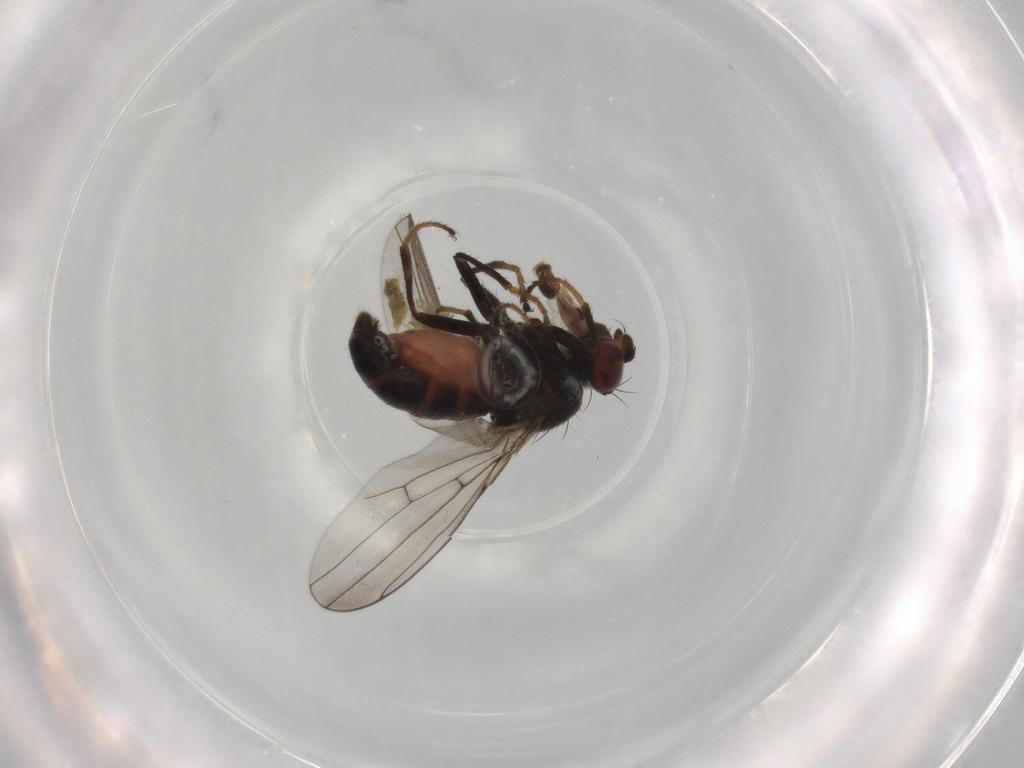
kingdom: Animalia
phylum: Arthropoda
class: Insecta
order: Diptera
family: Ephydridae
